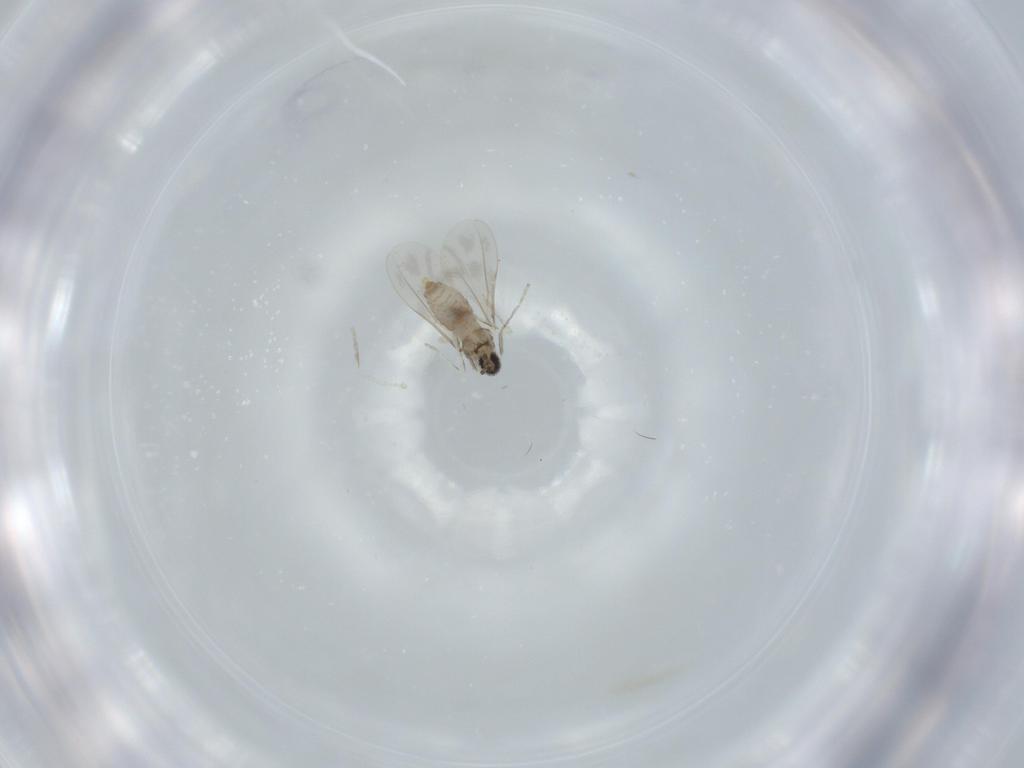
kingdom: Animalia
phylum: Arthropoda
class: Insecta
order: Diptera
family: Cecidomyiidae
